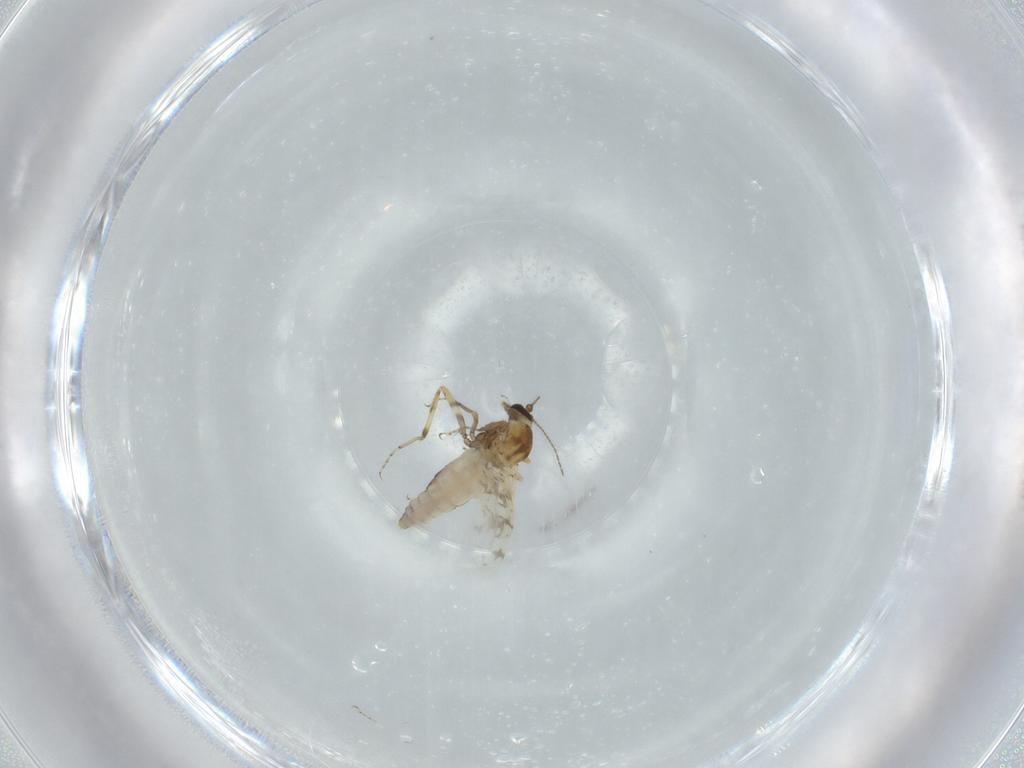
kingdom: Animalia
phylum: Arthropoda
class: Insecta
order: Diptera
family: Ceratopogonidae
